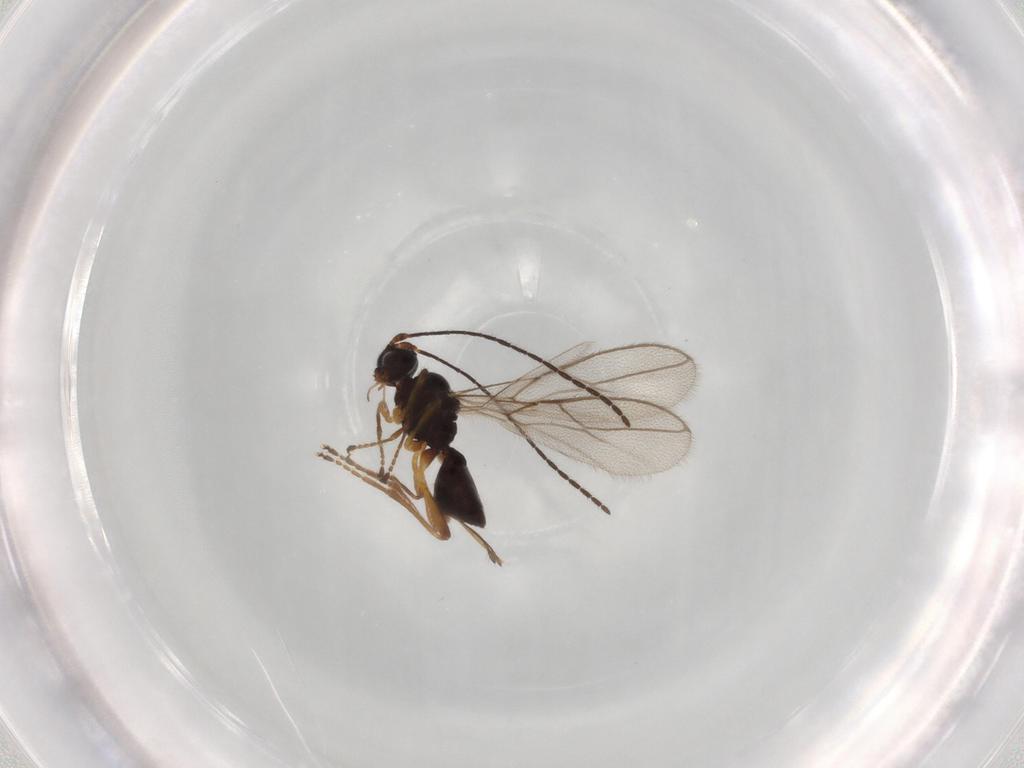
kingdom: Animalia
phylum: Arthropoda
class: Insecta
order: Hymenoptera
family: Braconidae
